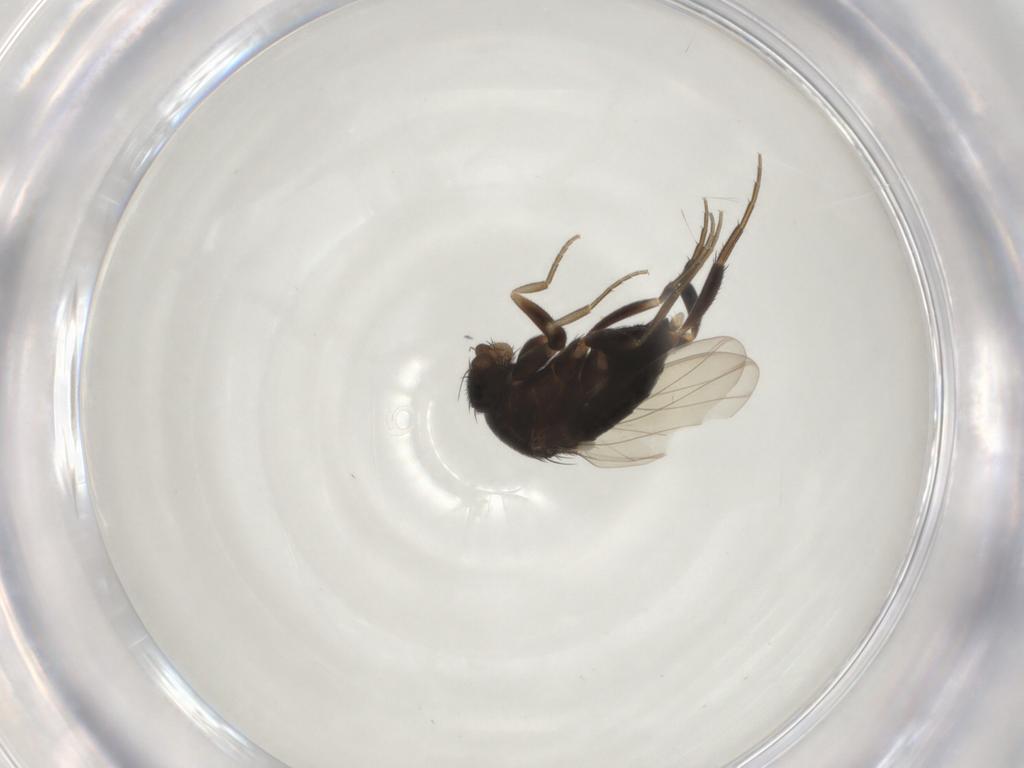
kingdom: Animalia
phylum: Arthropoda
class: Insecta
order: Diptera
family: Phoridae
